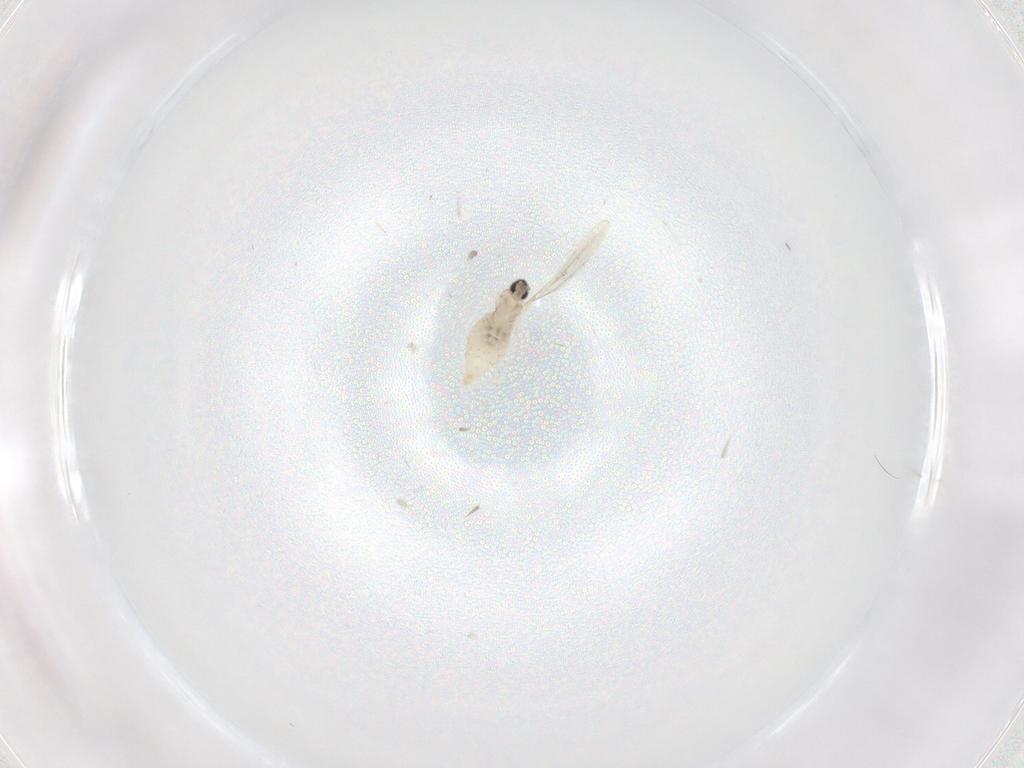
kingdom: Animalia
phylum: Arthropoda
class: Insecta
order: Diptera
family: Cecidomyiidae
